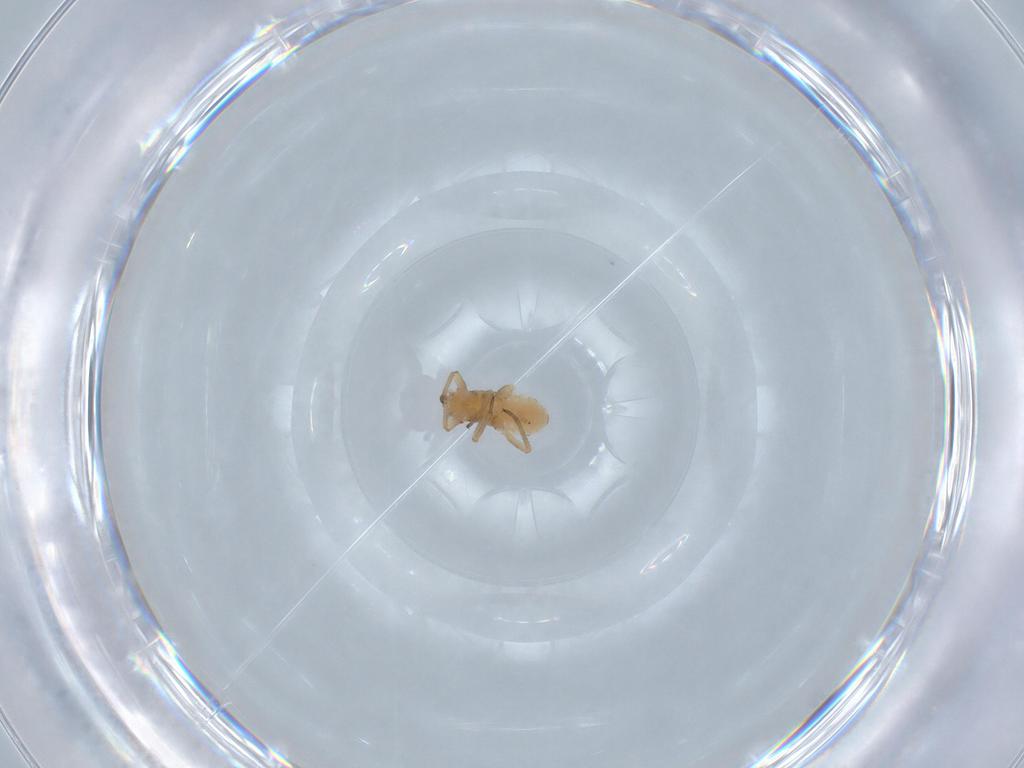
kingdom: Animalia
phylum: Arthropoda
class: Insecta
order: Hemiptera
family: Aphididae
